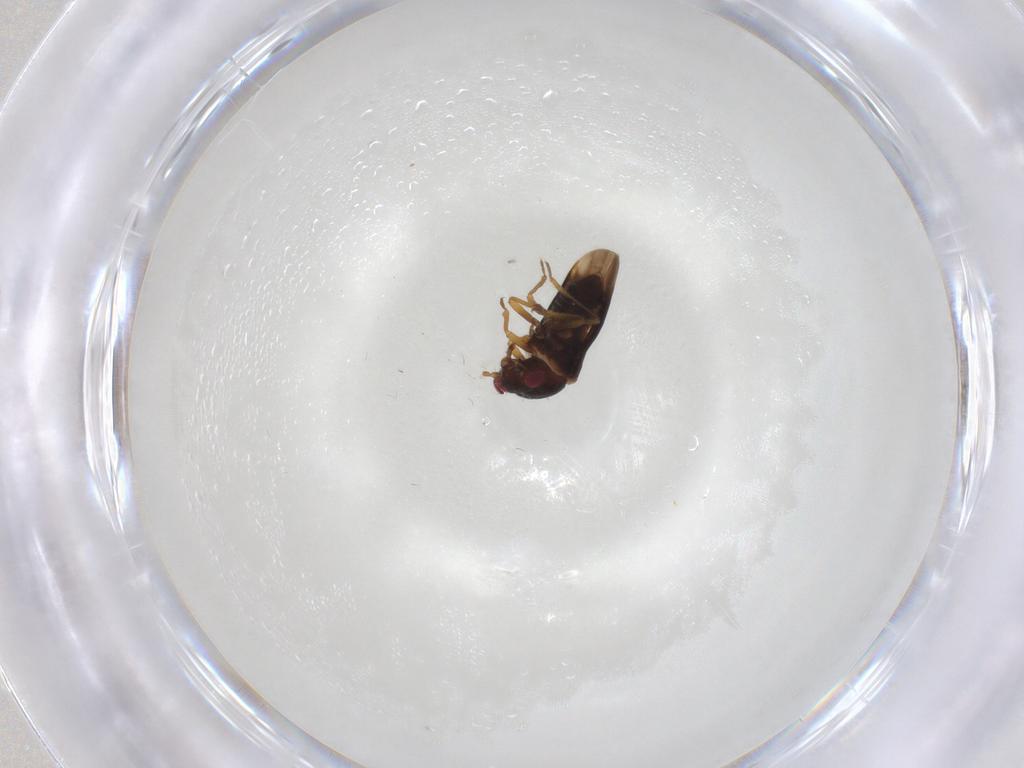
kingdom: Animalia
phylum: Arthropoda
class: Insecta
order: Hemiptera
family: Schizopteridae
